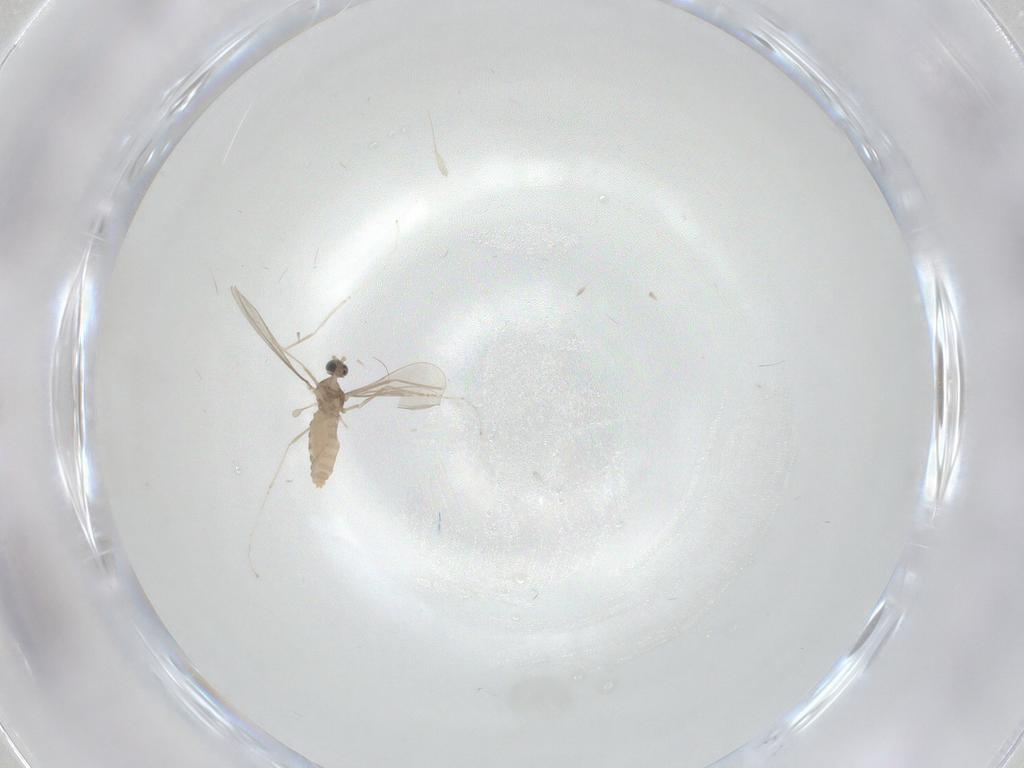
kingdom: Animalia
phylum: Arthropoda
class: Insecta
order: Diptera
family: Cecidomyiidae
